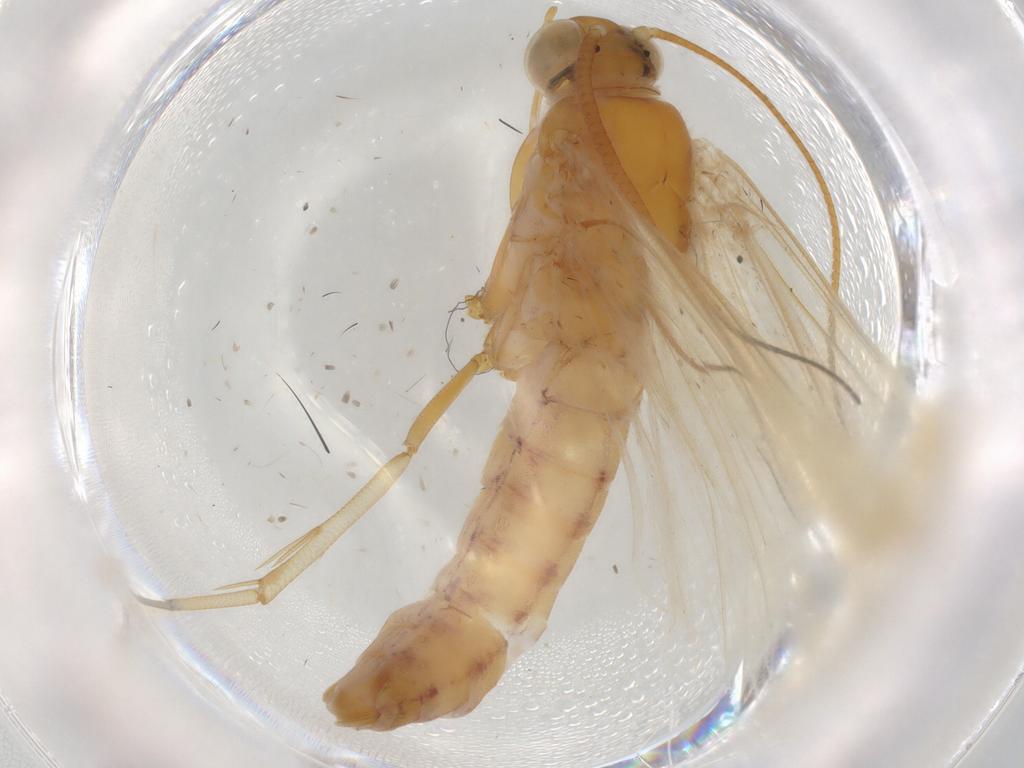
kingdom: Animalia
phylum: Arthropoda
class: Insecta
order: Lepidoptera
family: Crambidae
